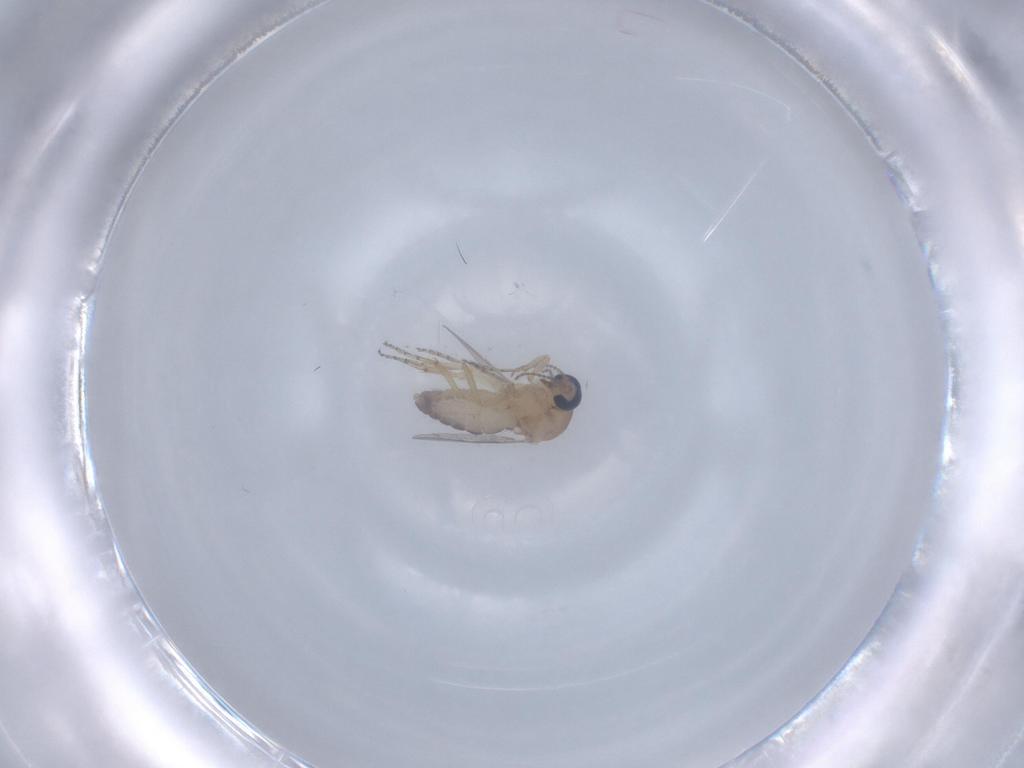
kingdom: Animalia
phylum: Arthropoda
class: Insecta
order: Diptera
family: Ceratopogonidae
